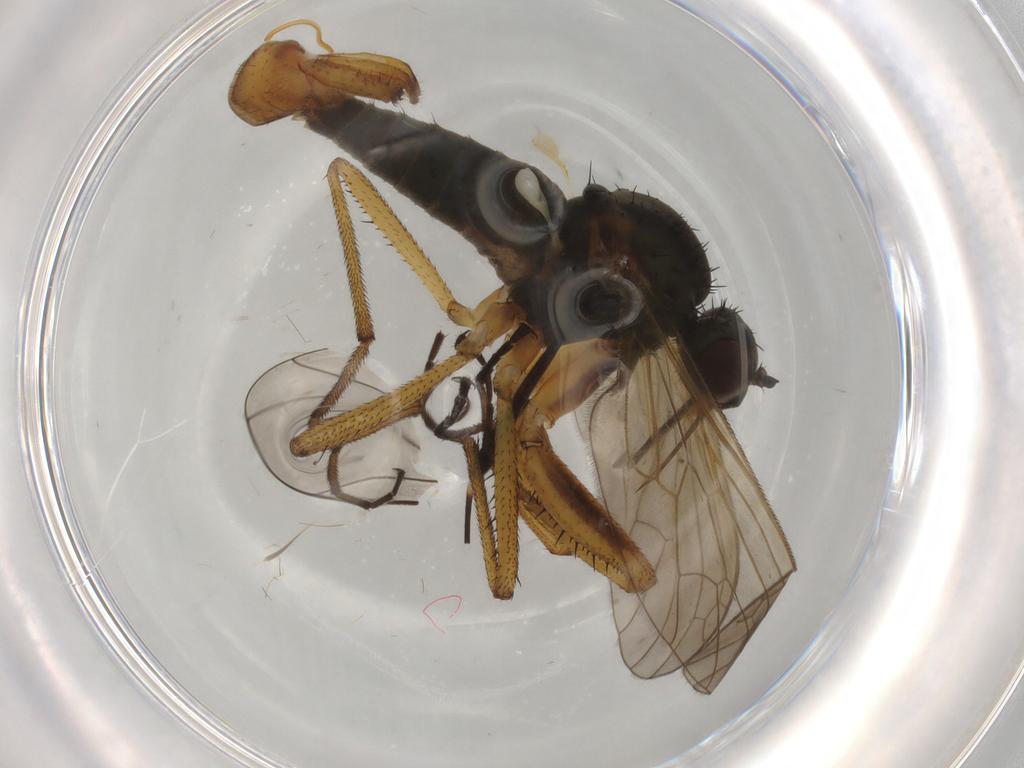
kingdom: Animalia
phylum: Arthropoda
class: Insecta
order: Diptera
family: Empididae
